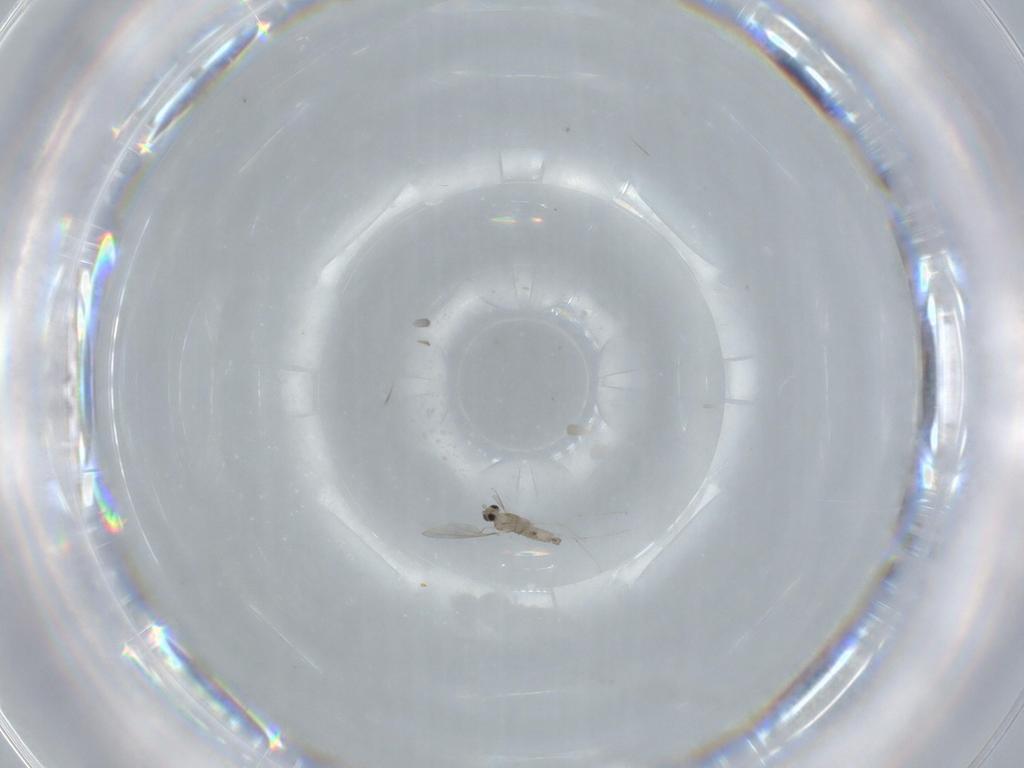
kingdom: Animalia
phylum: Arthropoda
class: Insecta
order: Diptera
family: Cecidomyiidae
